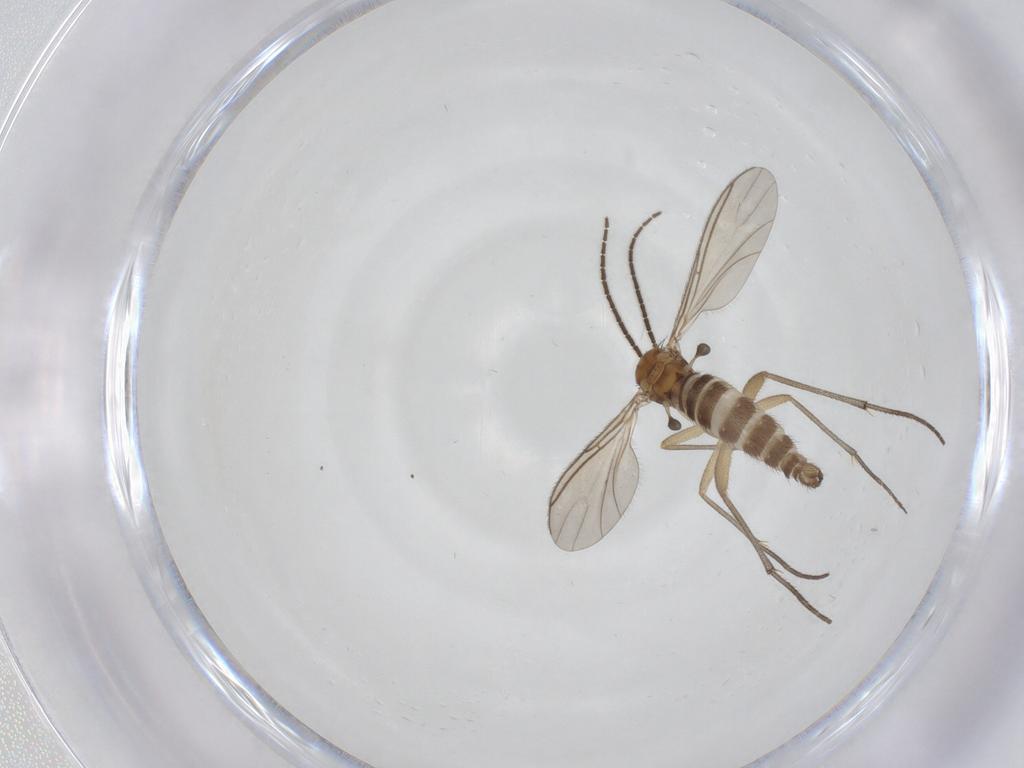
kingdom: Animalia
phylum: Arthropoda
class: Insecta
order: Diptera
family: Sciaridae
